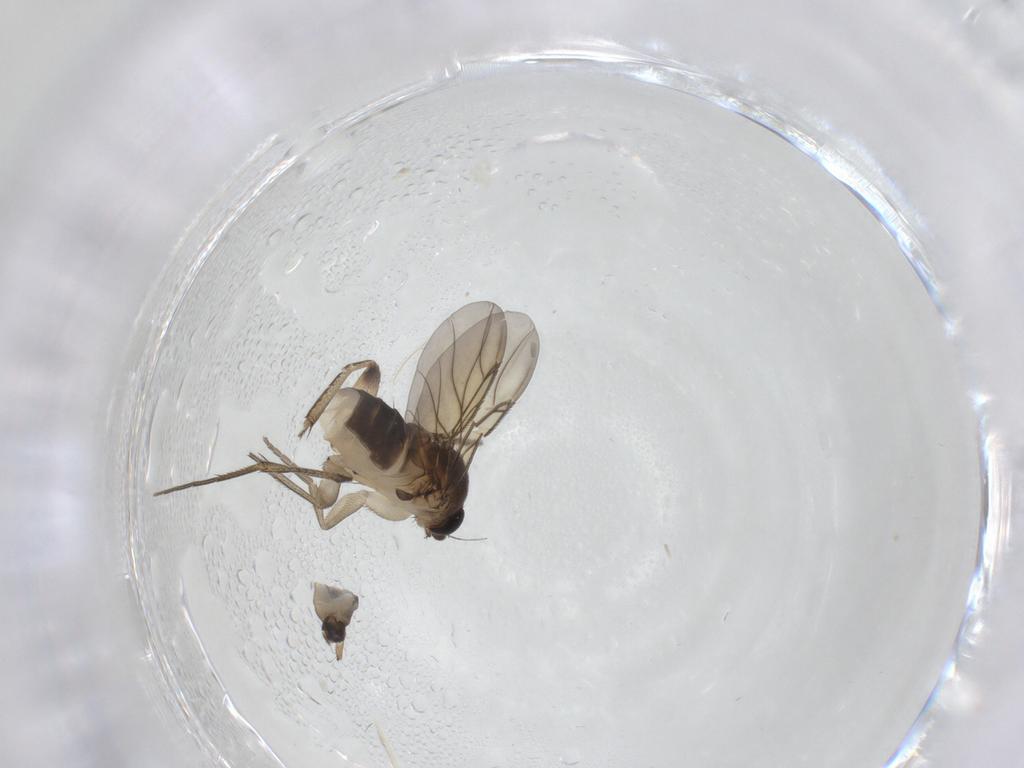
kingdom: Animalia
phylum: Arthropoda
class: Insecta
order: Diptera
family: Phoridae
